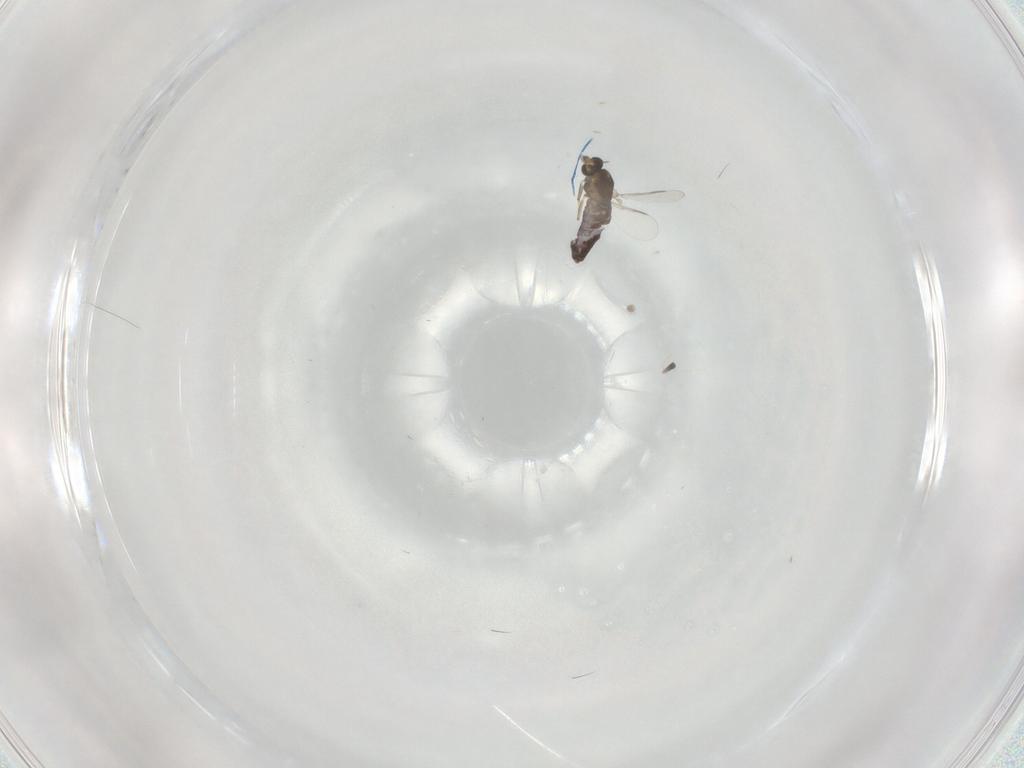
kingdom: Animalia
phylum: Arthropoda
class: Insecta
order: Diptera
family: Chironomidae
